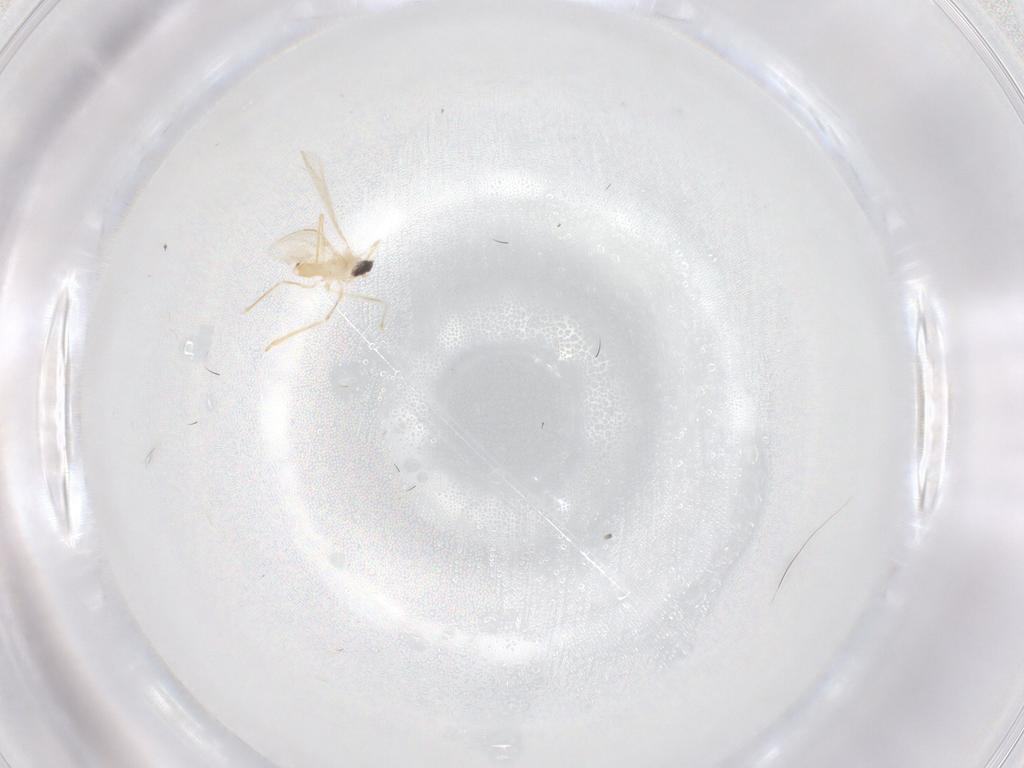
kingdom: Animalia
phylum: Arthropoda
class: Insecta
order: Diptera
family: Cecidomyiidae
